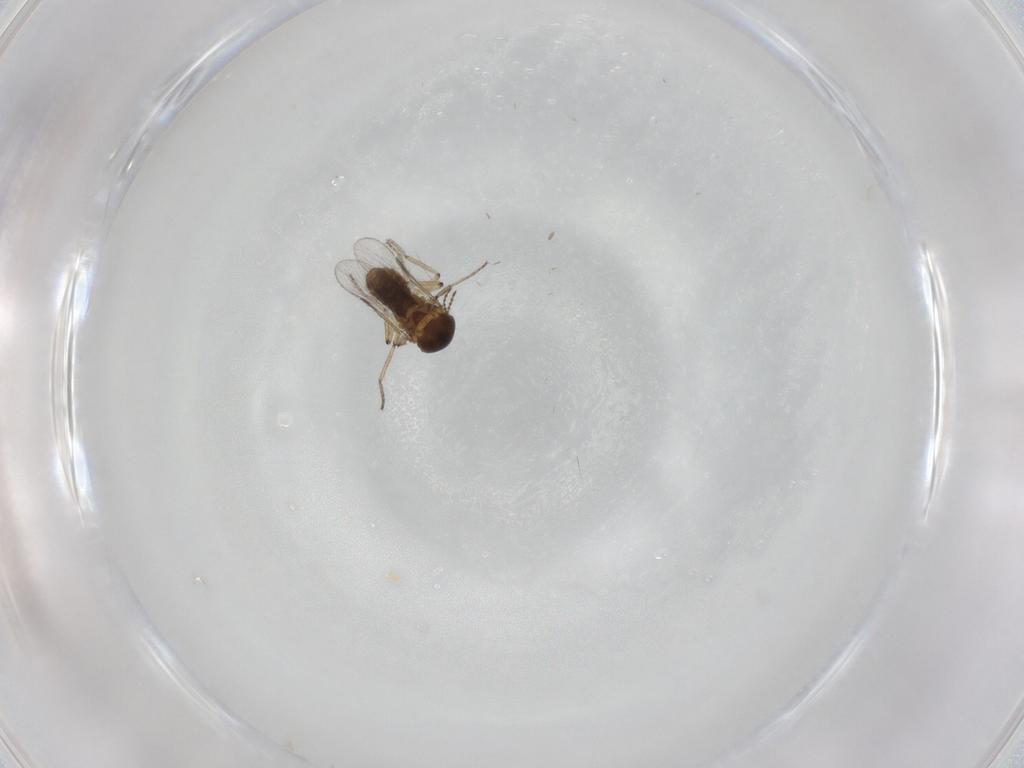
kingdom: Animalia
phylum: Arthropoda
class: Insecta
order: Diptera
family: Ceratopogonidae
